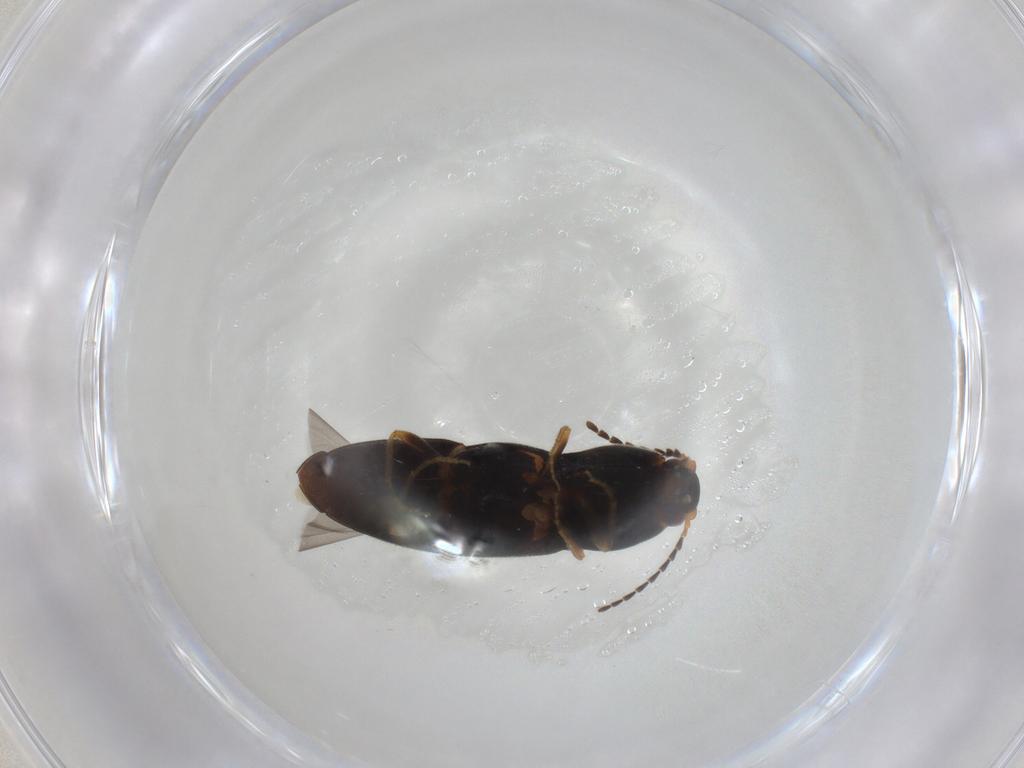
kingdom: Animalia
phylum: Arthropoda
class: Insecta
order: Coleoptera
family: Elateridae
